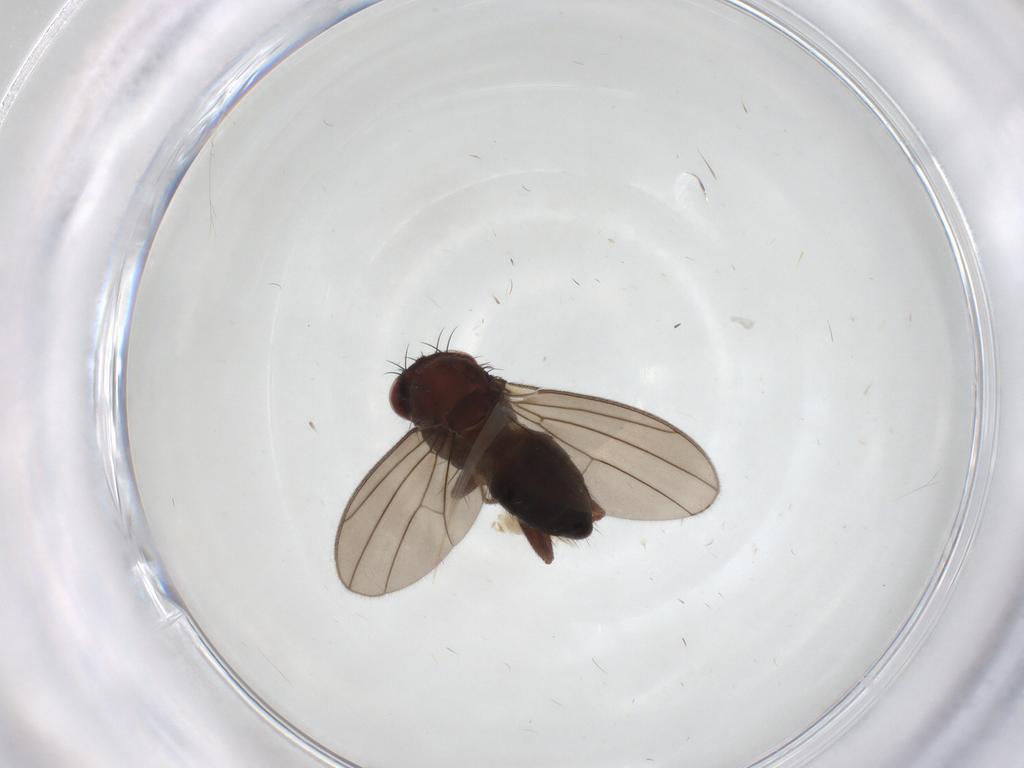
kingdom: Animalia
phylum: Arthropoda
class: Insecta
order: Diptera
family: Drosophilidae
